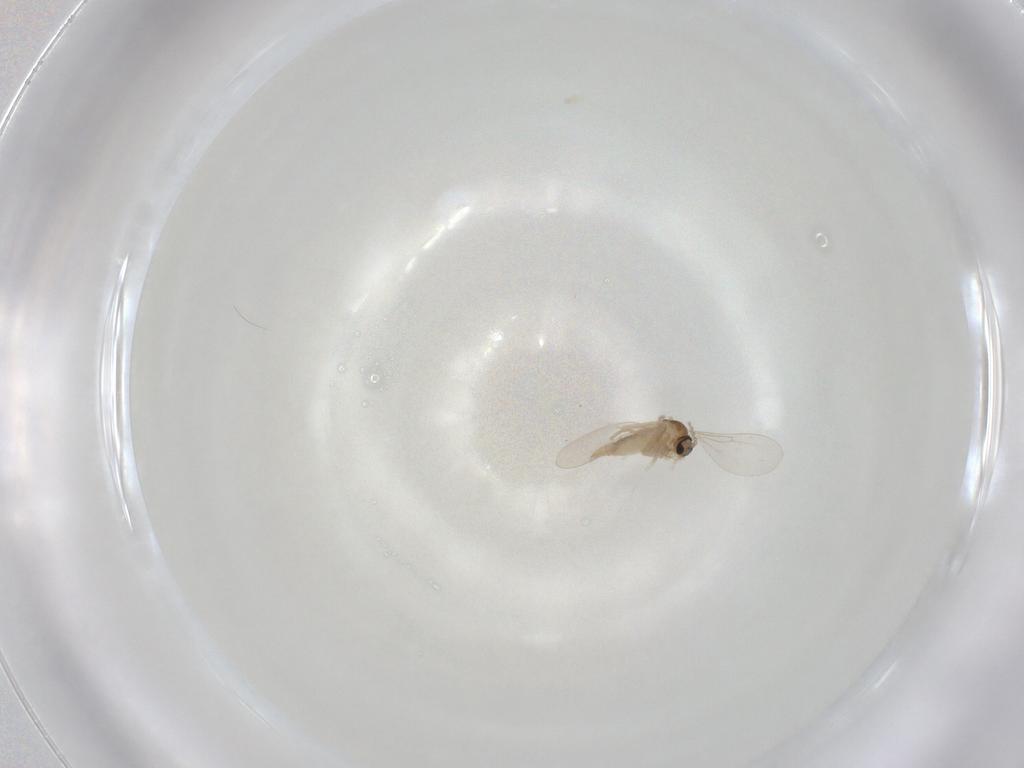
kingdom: Animalia
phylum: Arthropoda
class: Insecta
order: Diptera
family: Cecidomyiidae
